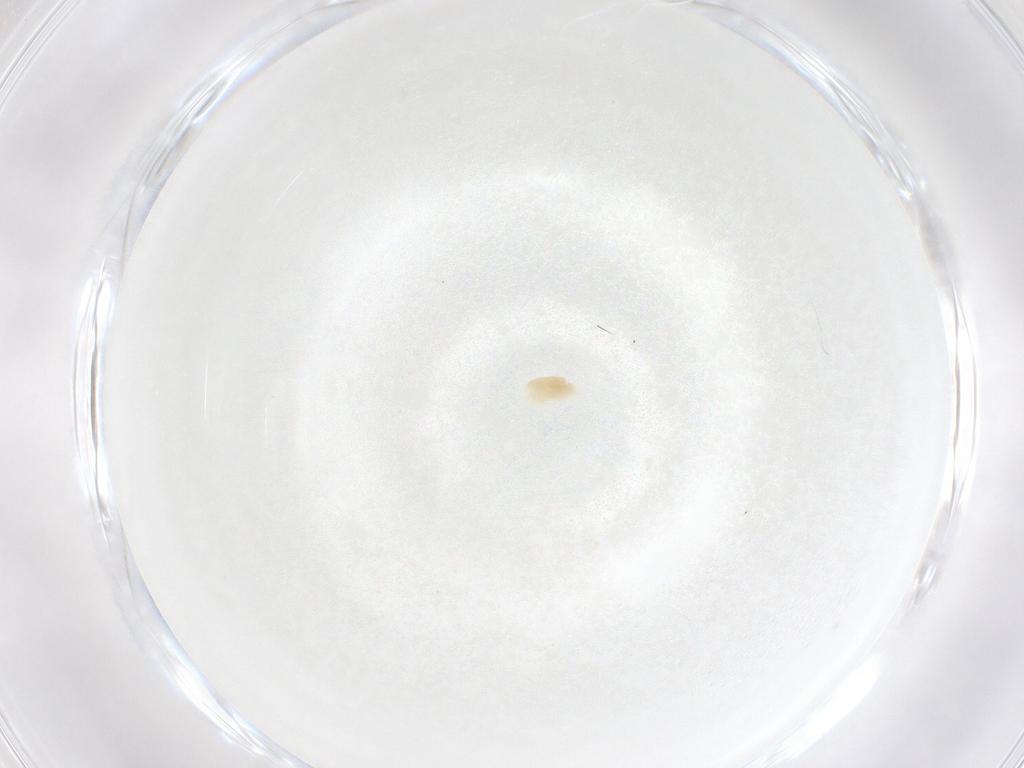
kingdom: Animalia
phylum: Arthropoda
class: Arachnida
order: Trombidiformes
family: Eupodidae
